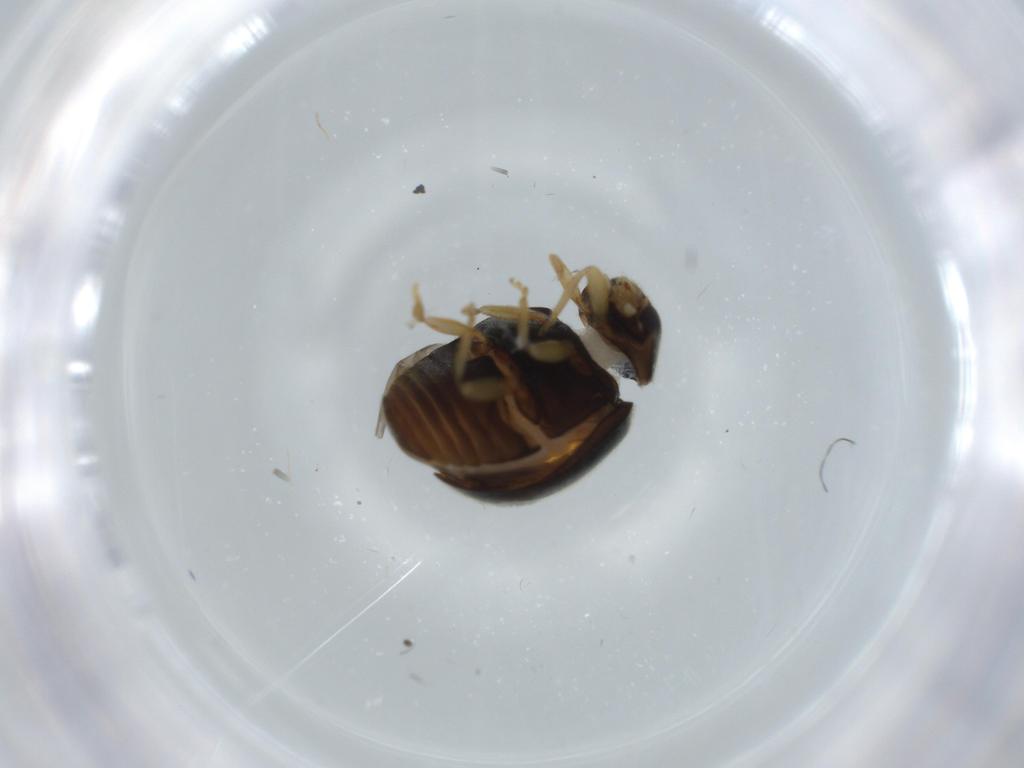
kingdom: Animalia
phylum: Arthropoda
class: Insecta
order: Coleoptera
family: Coccinellidae
